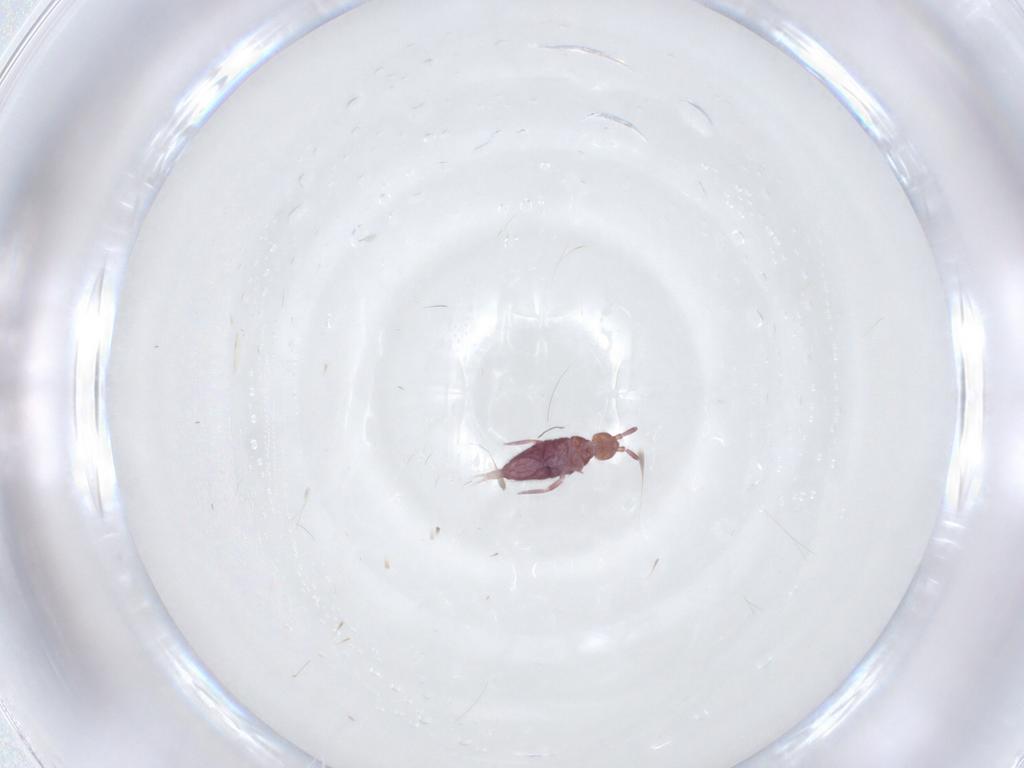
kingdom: Animalia
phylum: Arthropoda
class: Collembola
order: Entomobryomorpha
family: Entomobryidae
